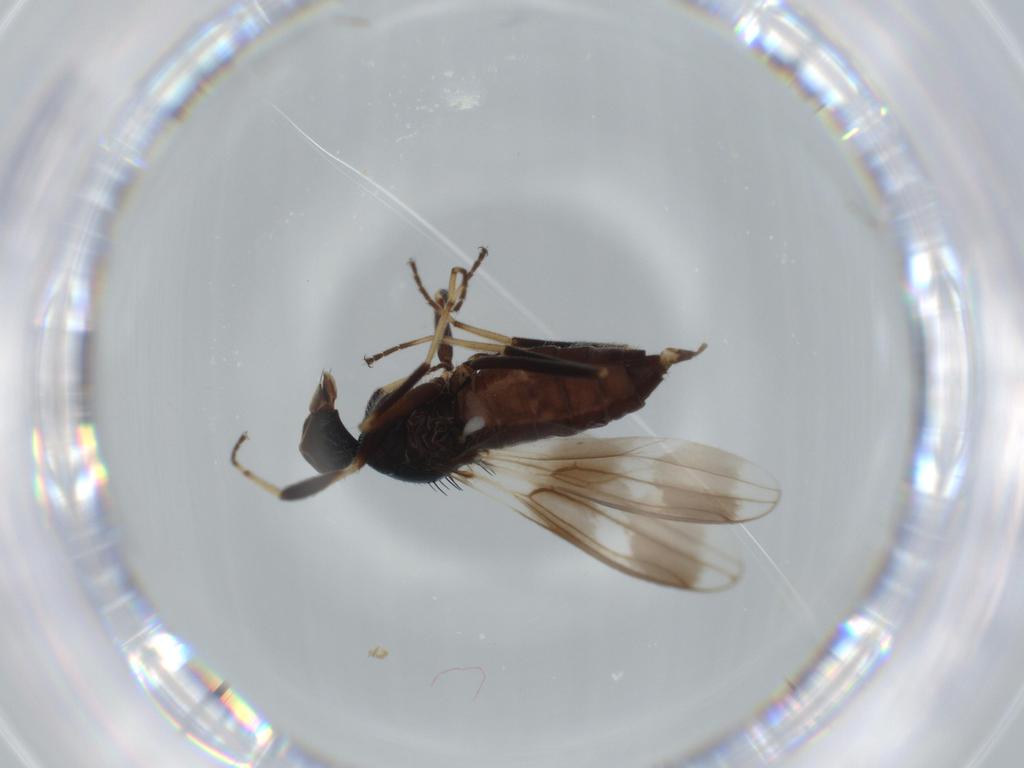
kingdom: Animalia
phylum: Arthropoda
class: Insecta
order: Diptera
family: Hybotidae
